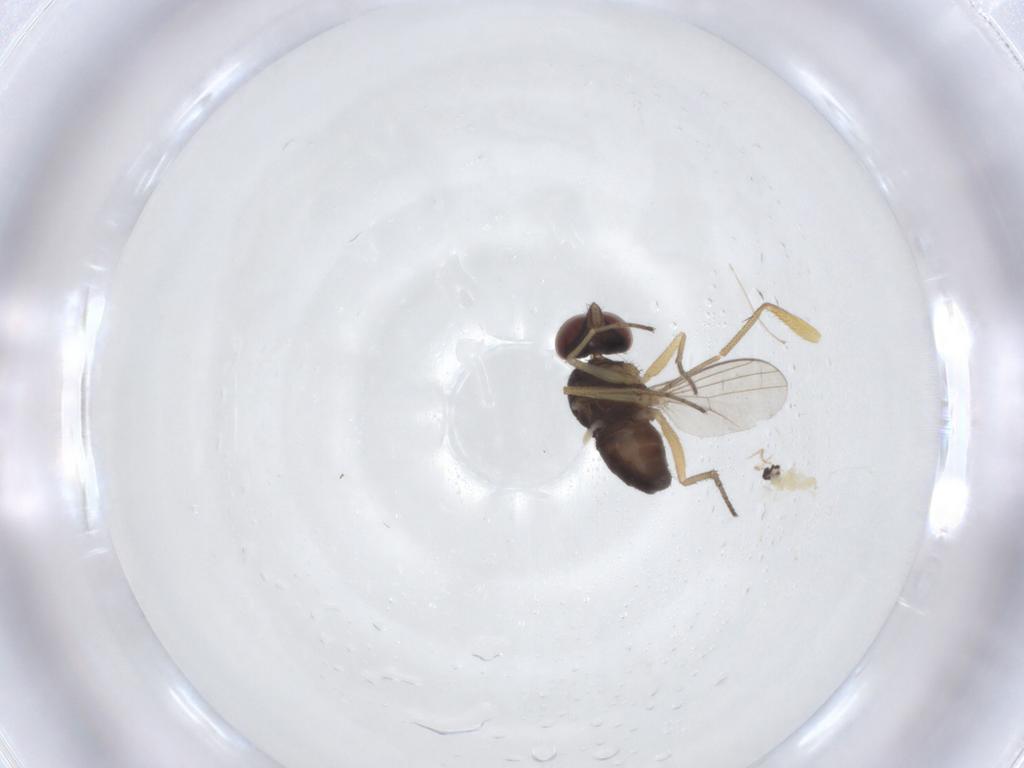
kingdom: Animalia
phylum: Arthropoda
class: Insecta
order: Diptera
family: Dolichopodidae
